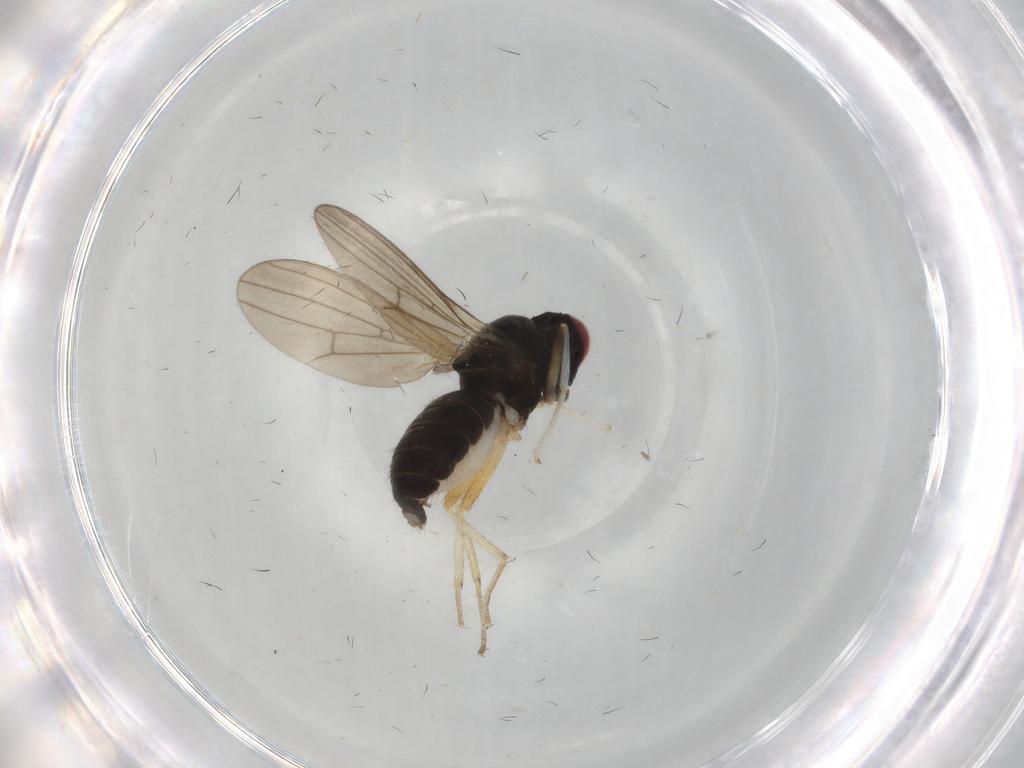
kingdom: Animalia
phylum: Arthropoda
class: Insecta
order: Diptera
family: Lauxaniidae
